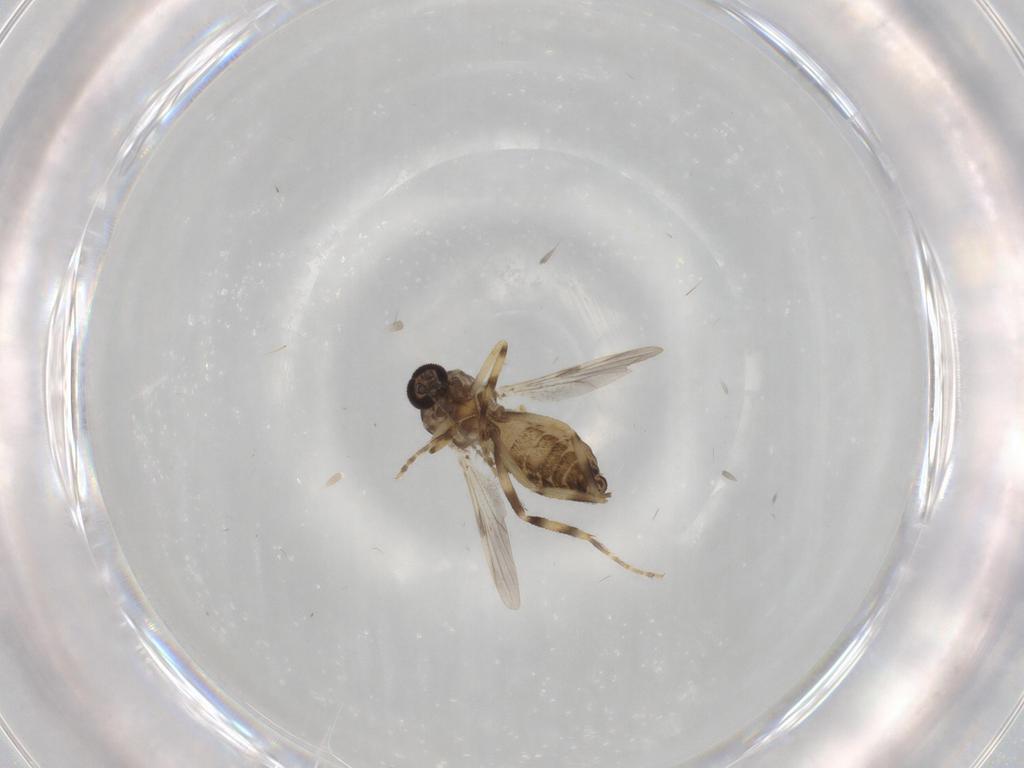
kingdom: Animalia
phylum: Arthropoda
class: Insecta
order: Diptera
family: Ceratopogonidae
